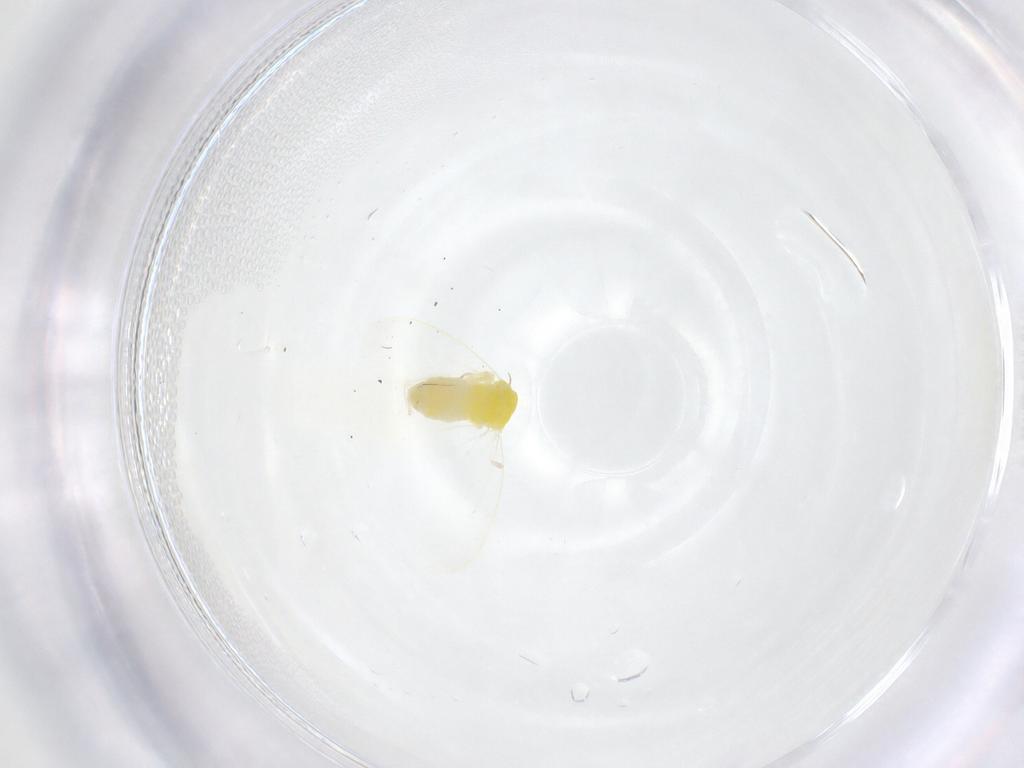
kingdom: Animalia
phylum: Arthropoda
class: Insecta
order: Hemiptera
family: Aleyrodidae
